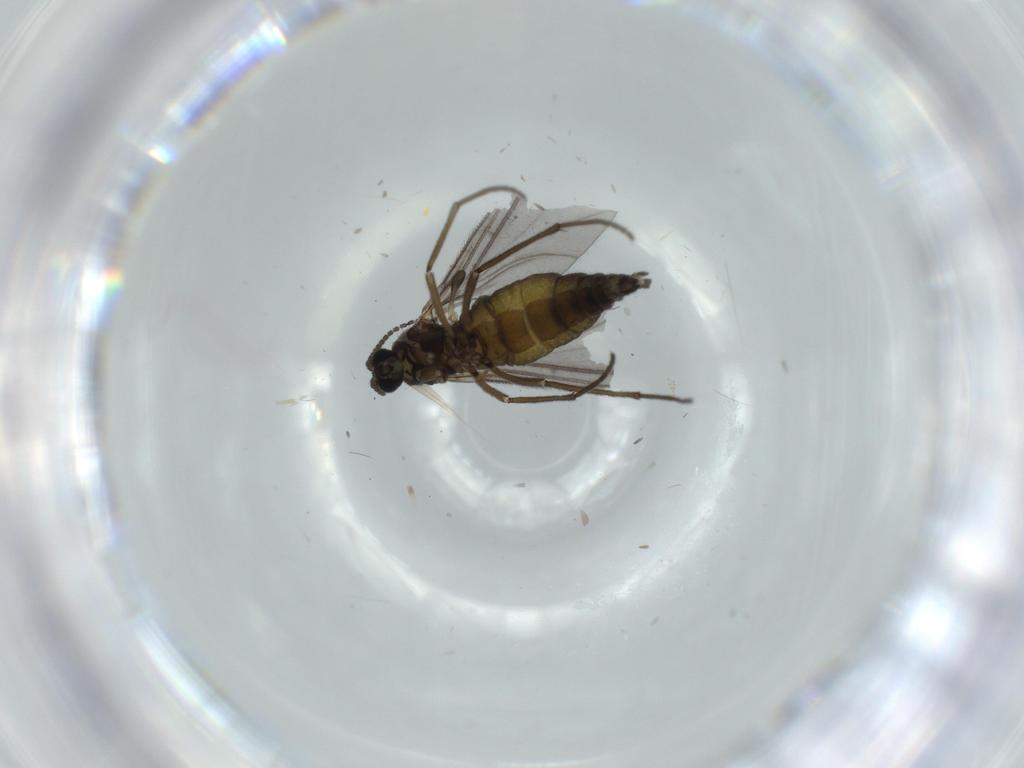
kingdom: Animalia
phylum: Arthropoda
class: Insecta
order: Diptera
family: Sciaridae
